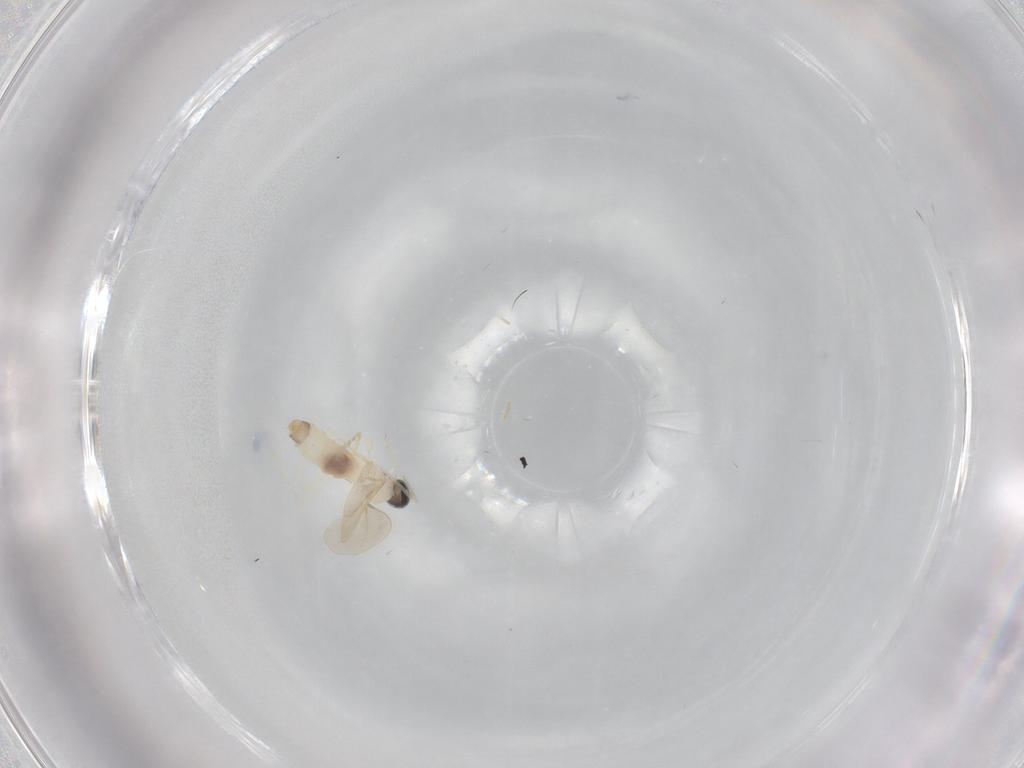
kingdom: Animalia
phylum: Arthropoda
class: Insecta
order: Diptera
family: Cecidomyiidae
